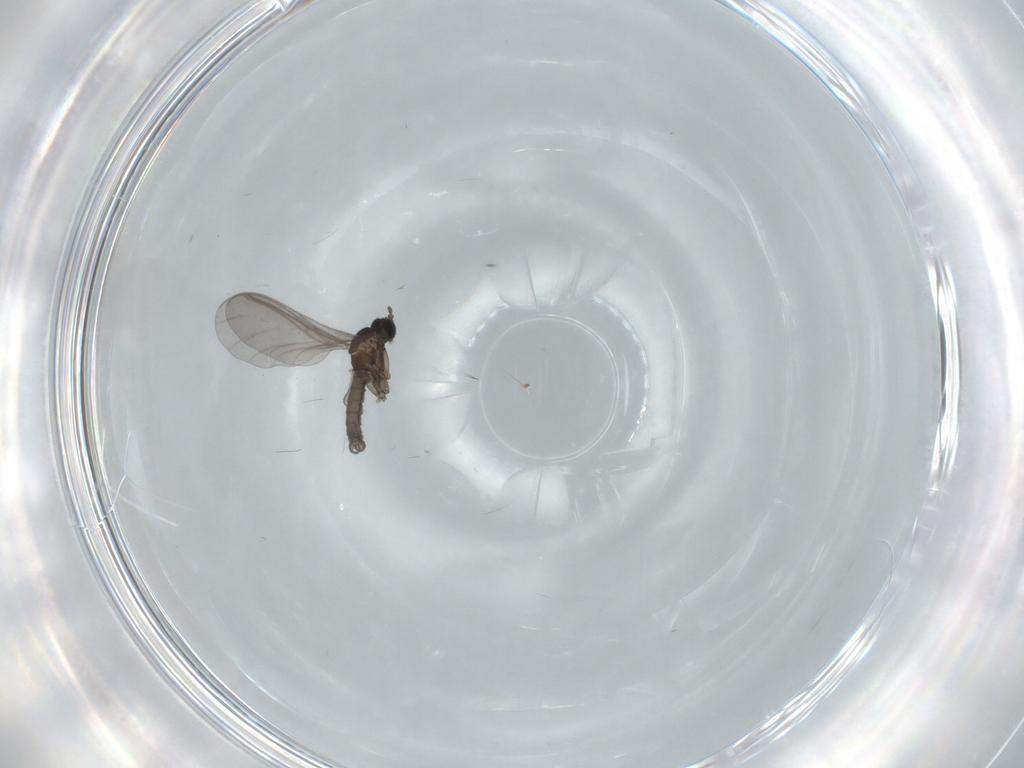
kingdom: Animalia
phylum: Arthropoda
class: Insecta
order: Diptera
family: Sciaridae
